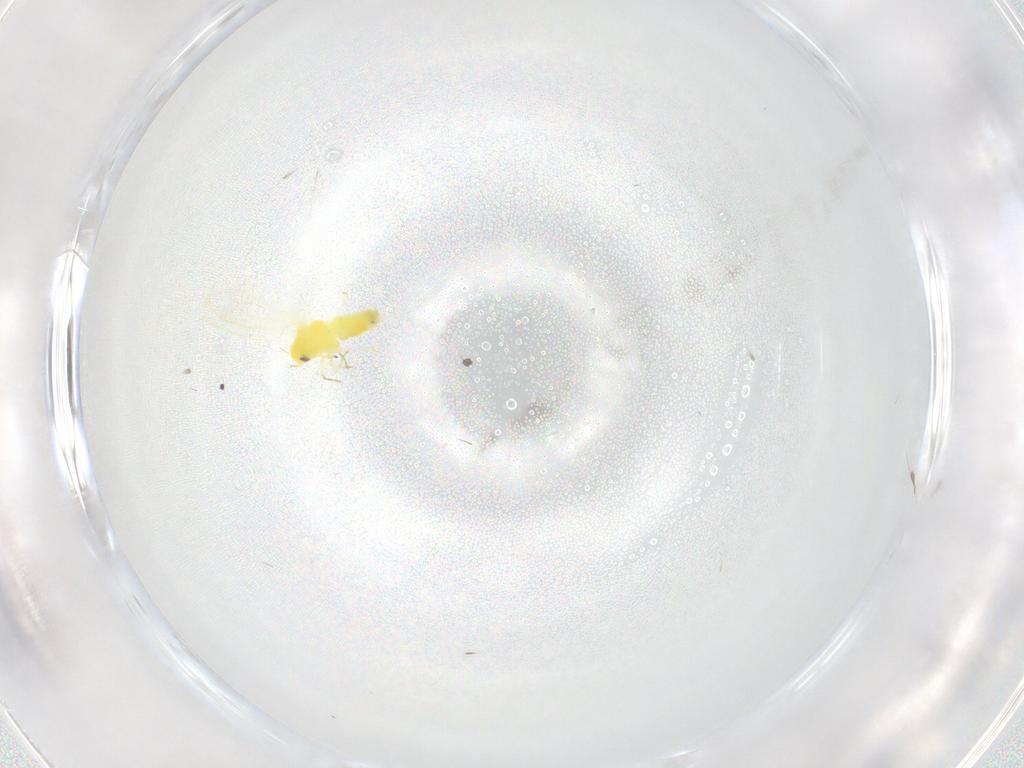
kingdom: Animalia
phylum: Arthropoda
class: Insecta
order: Hemiptera
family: Aleyrodidae
